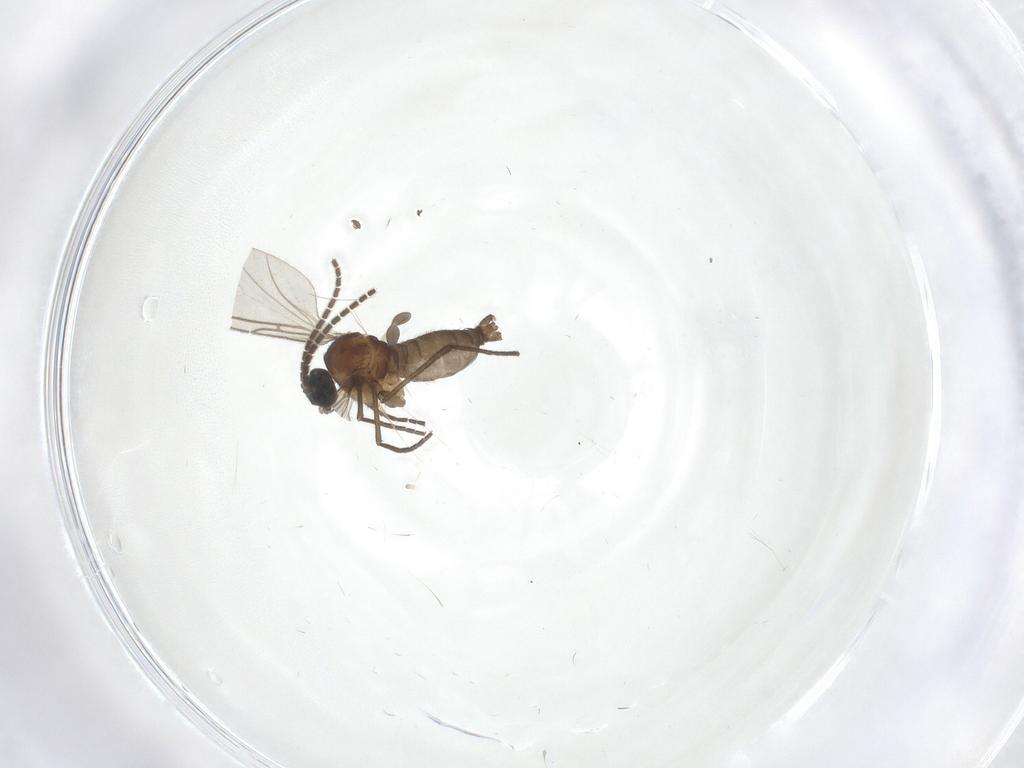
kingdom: Animalia
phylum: Arthropoda
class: Insecta
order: Diptera
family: Sciaridae
